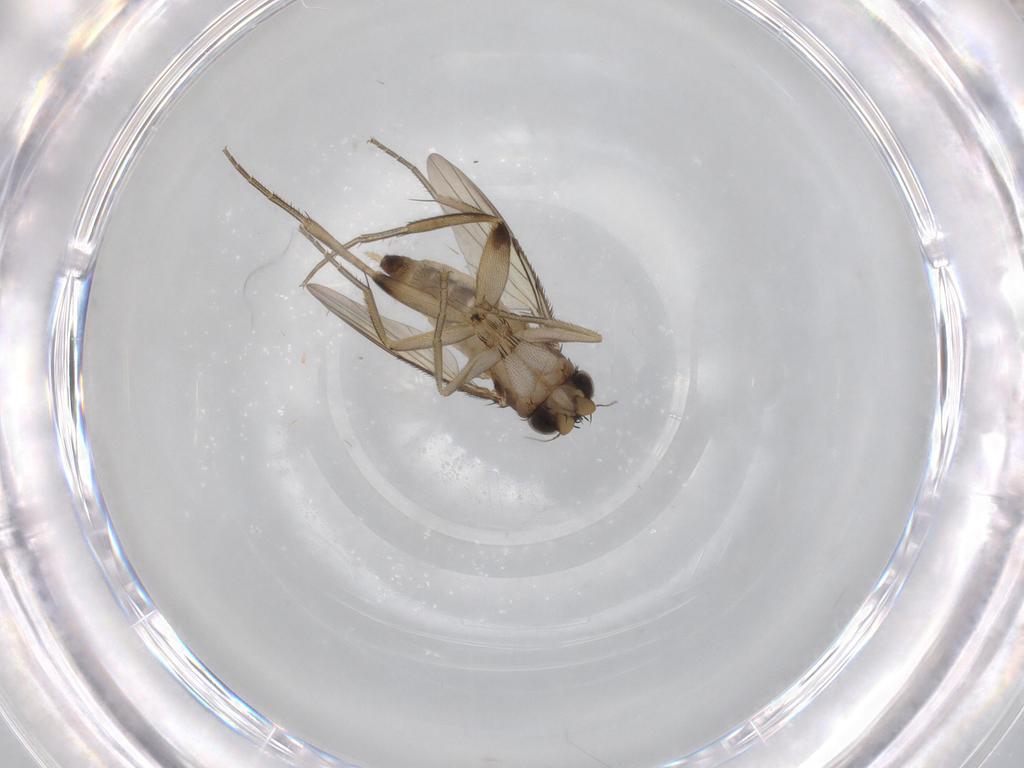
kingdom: Animalia
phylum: Arthropoda
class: Insecta
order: Diptera
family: Phoridae
